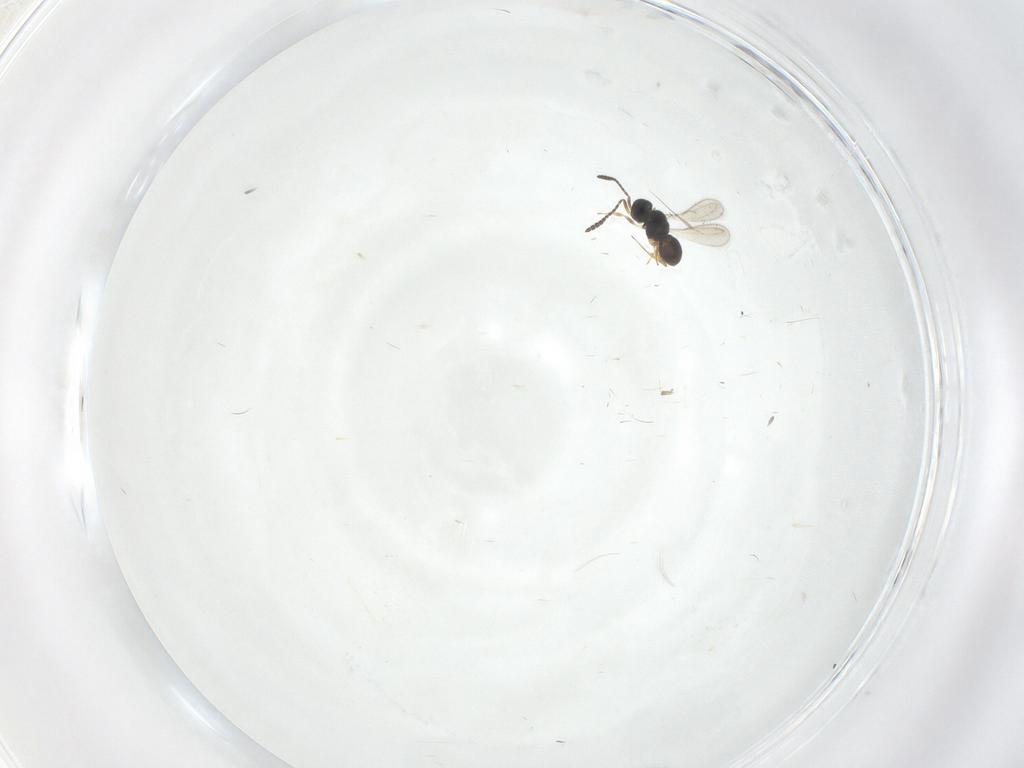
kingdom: Animalia
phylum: Arthropoda
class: Insecta
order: Hymenoptera
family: Scelionidae
